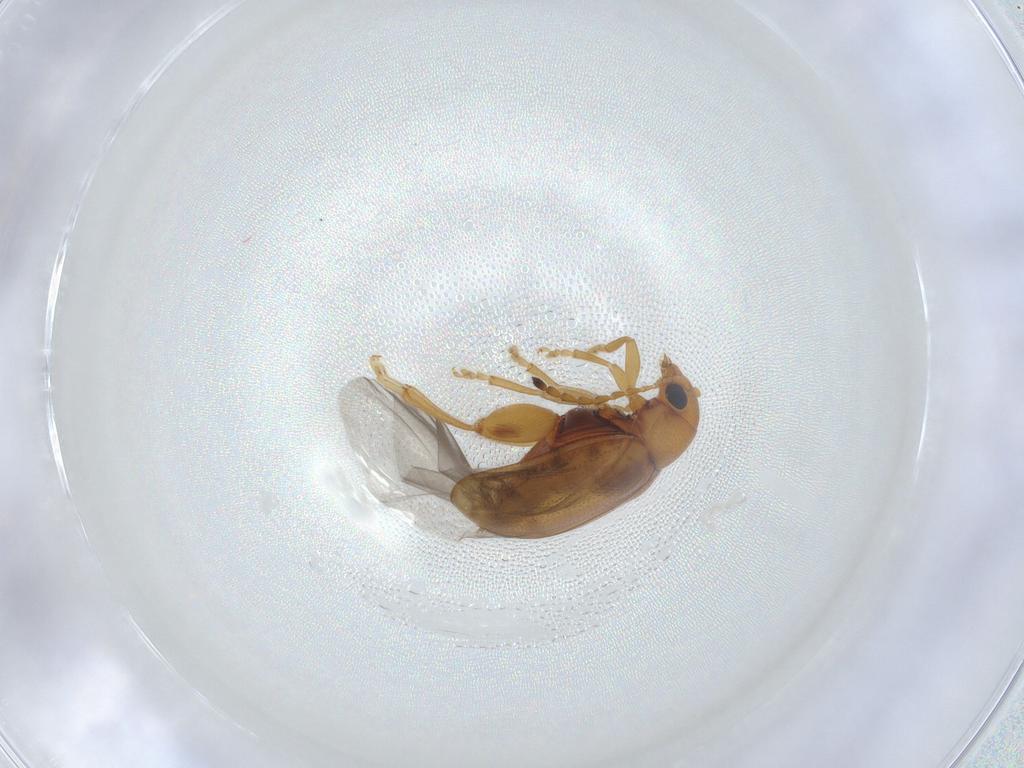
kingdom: Animalia
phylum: Arthropoda
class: Insecta
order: Coleoptera
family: Chrysomelidae
